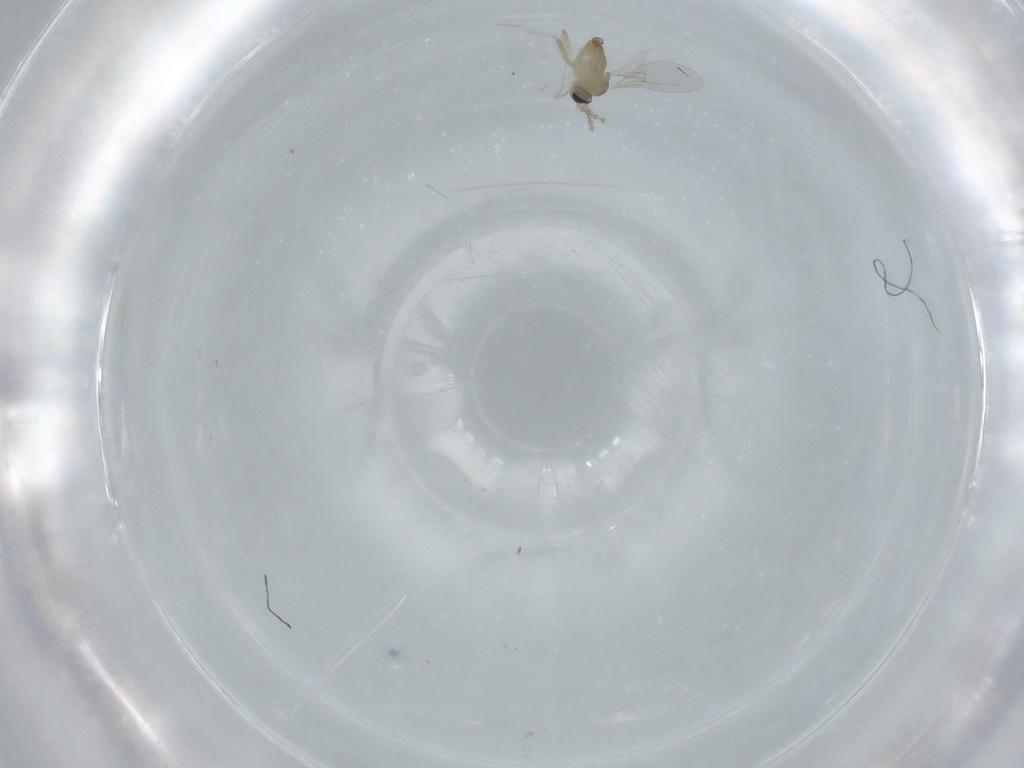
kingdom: Animalia
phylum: Arthropoda
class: Insecta
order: Diptera
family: Cecidomyiidae
